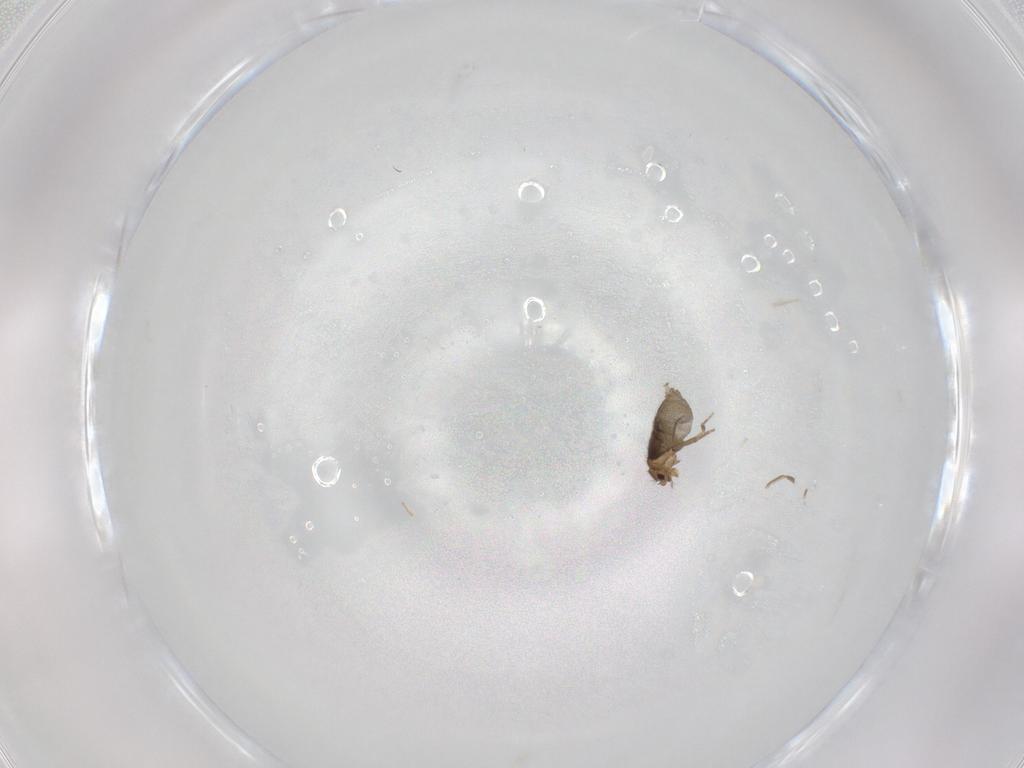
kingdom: Animalia
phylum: Arthropoda
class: Insecta
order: Diptera
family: Phoridae
